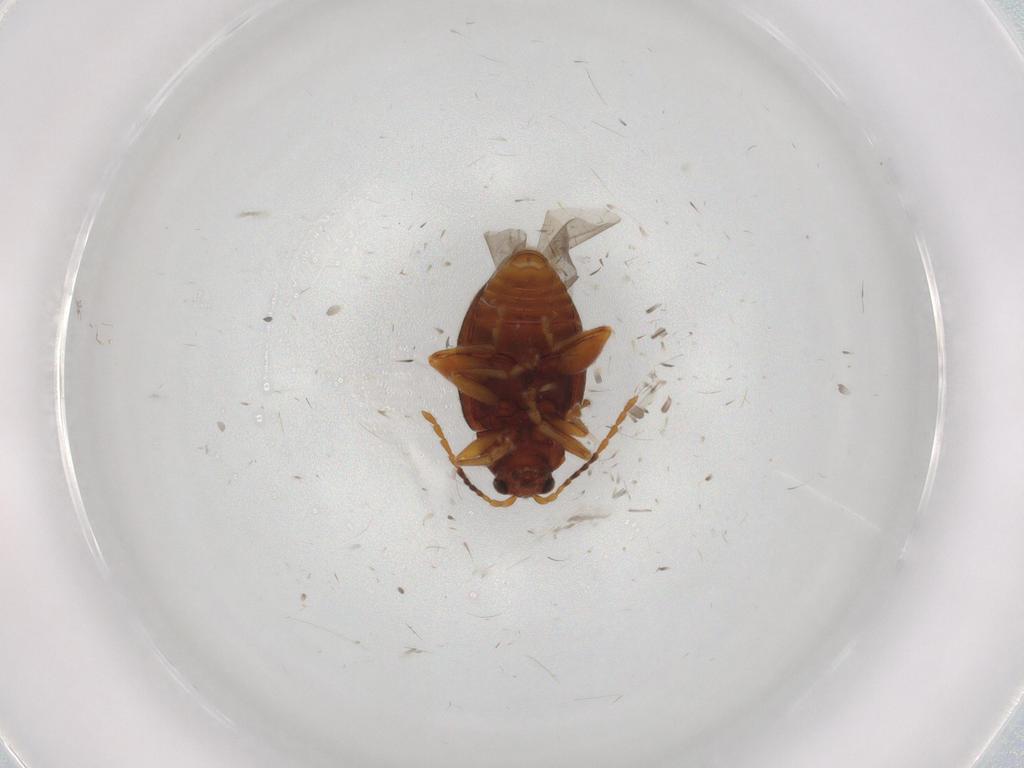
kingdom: Animalia
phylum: Arthropoda
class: Insecta
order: Coleoptera
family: Chrysomelidae
